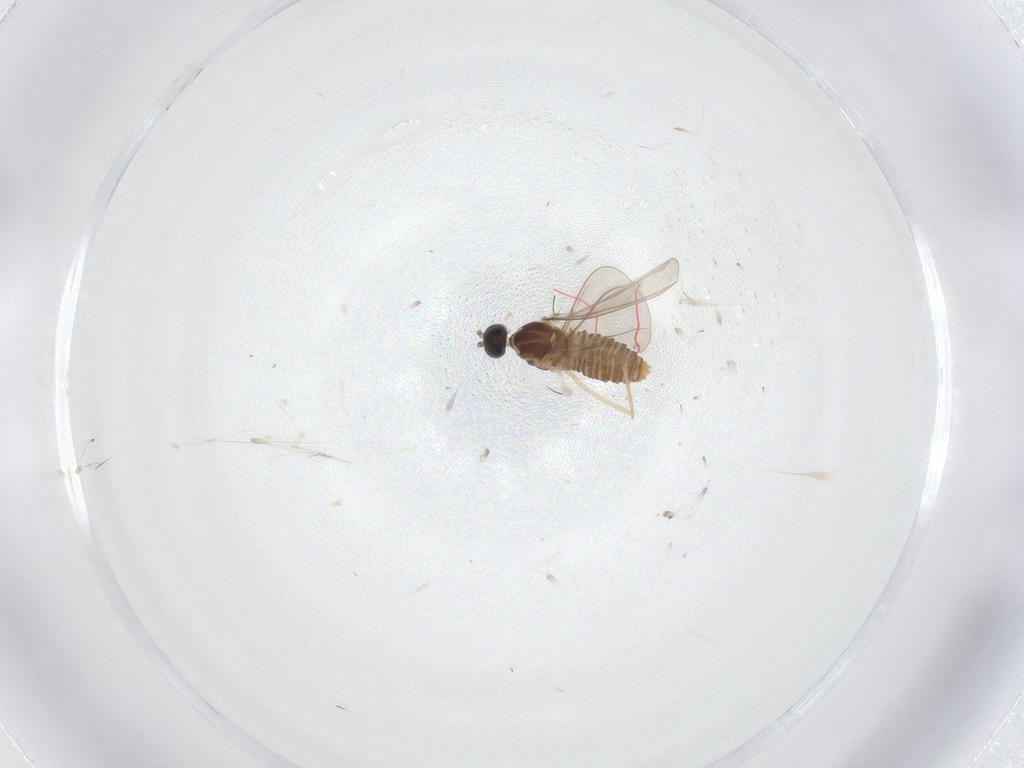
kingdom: Animalia
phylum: Arthropoda
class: Insecta
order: Diptera
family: Cecidomyiidae
